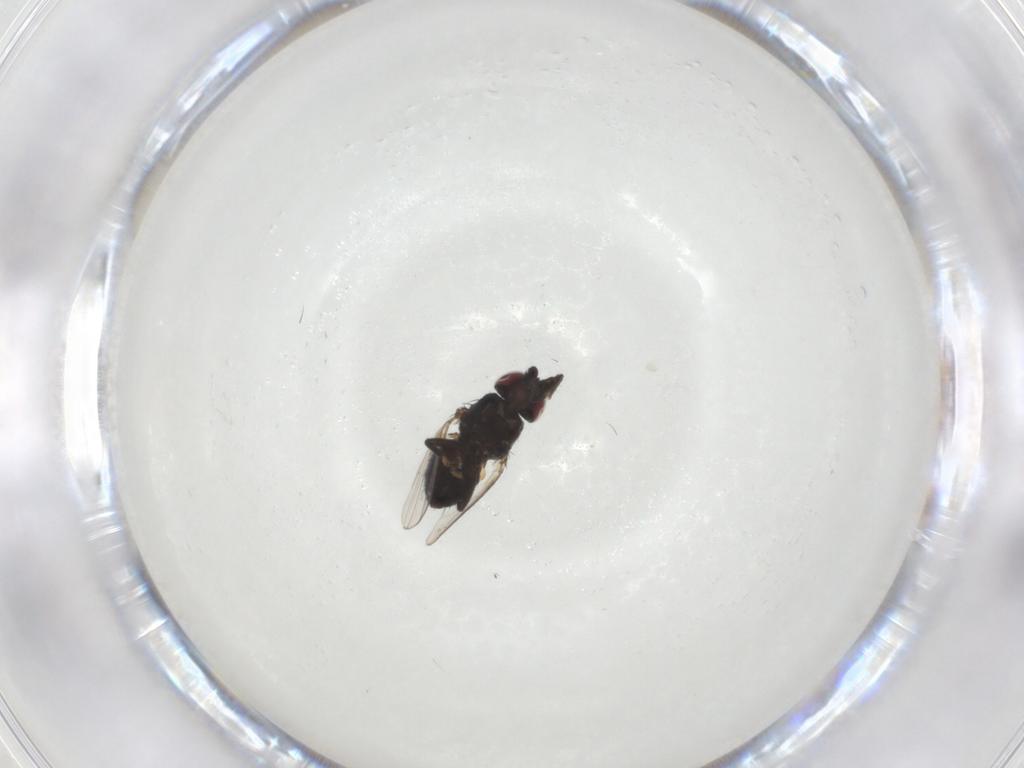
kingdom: Animalia
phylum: Arthropoda
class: Insecta
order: Diptera
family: Milichiidae
